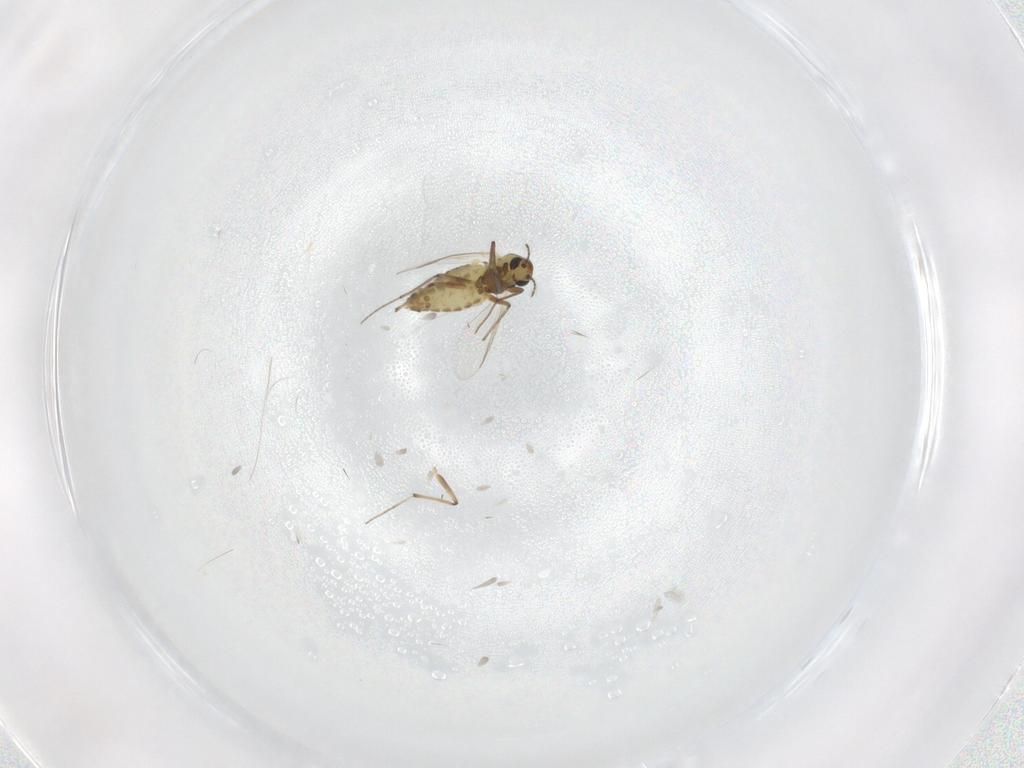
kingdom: Animalia
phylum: Arthropoda
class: Insecta
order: Diptera
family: Chironomidae
